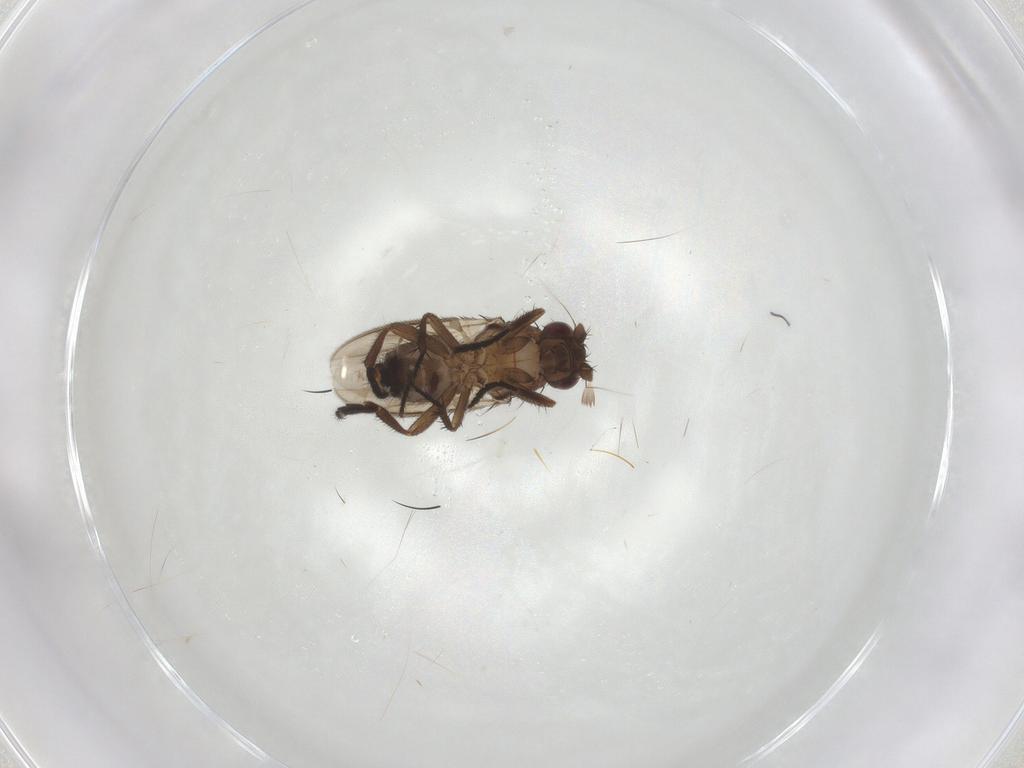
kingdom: Animalia
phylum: Arthropoda
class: Insecta
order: Diptera
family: Sphaeroceridae
